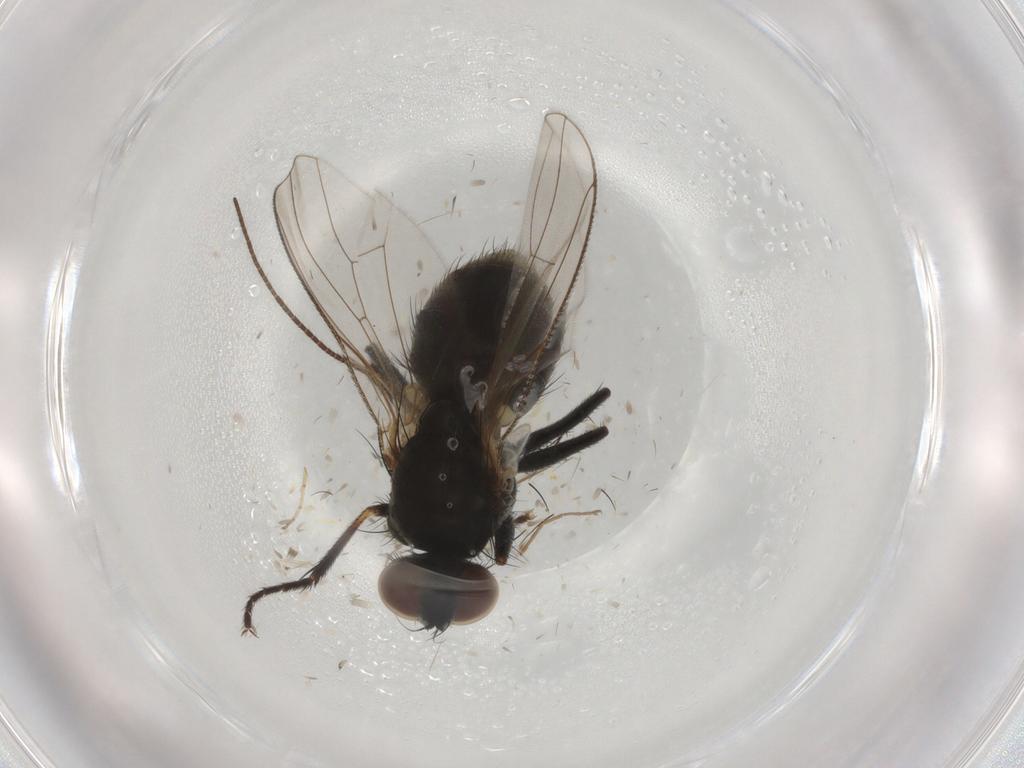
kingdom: Animalia
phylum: Arthropoda
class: Insecta
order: Diptera
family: Muscidae
